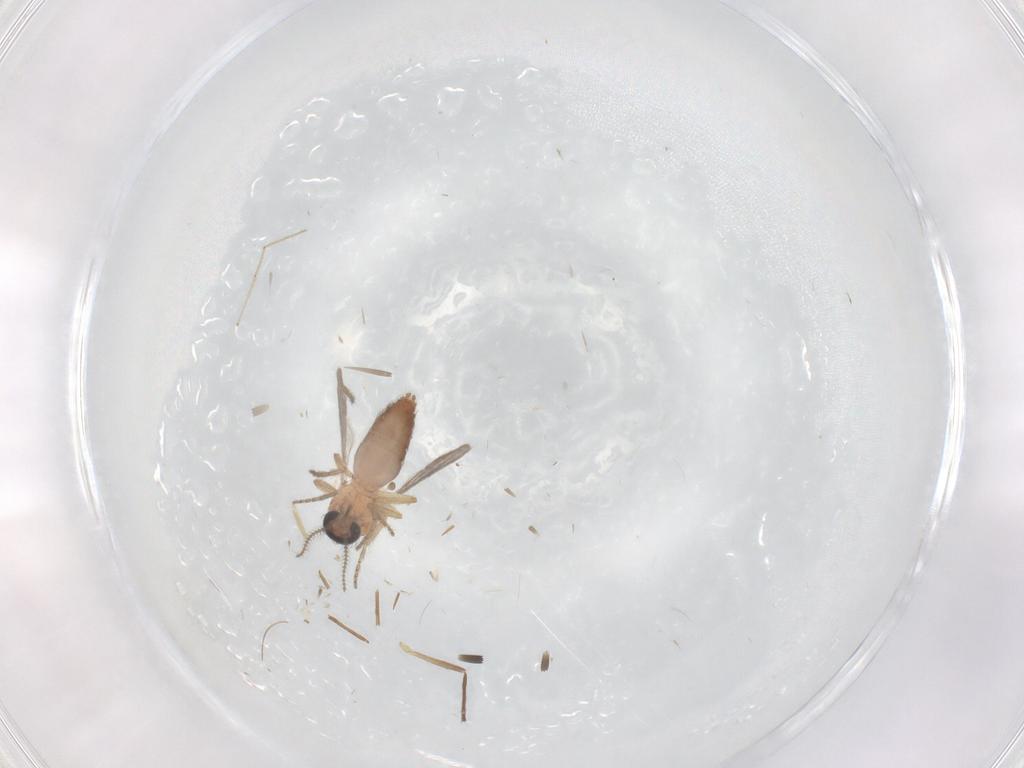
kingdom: Animalia
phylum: Arthropoda
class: Insecta
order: Diptera
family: Ceratopogonidae
